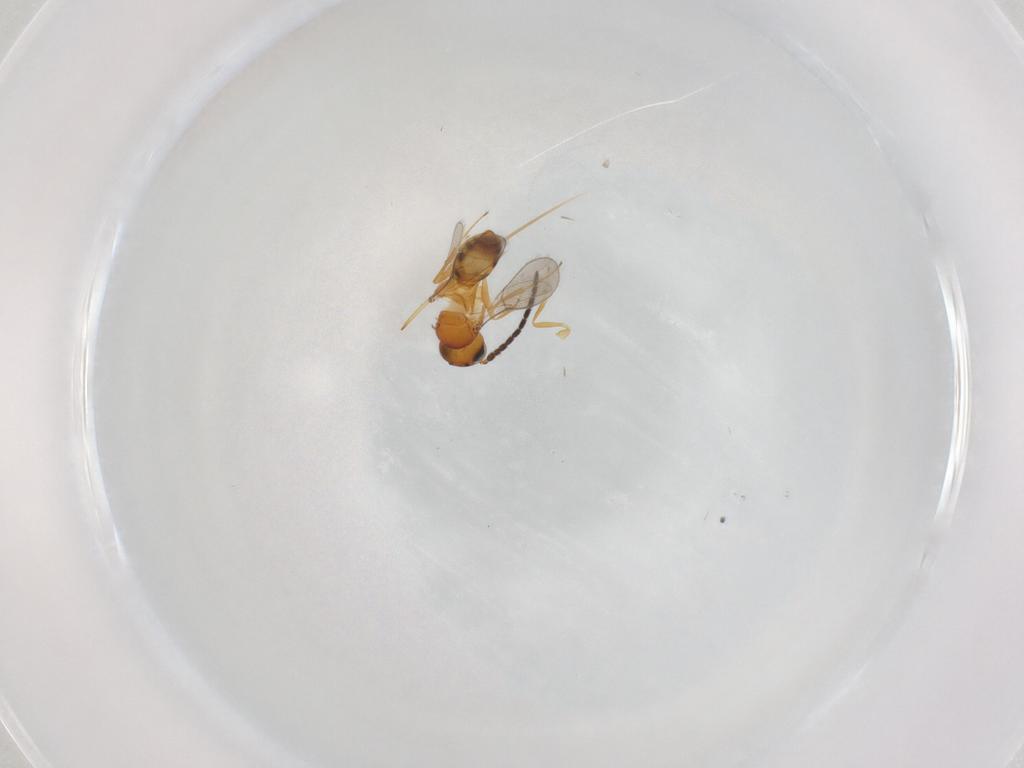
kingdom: Animalia
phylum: Arthropoda
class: Insecta
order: Hymenoptera
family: Scelionidae
